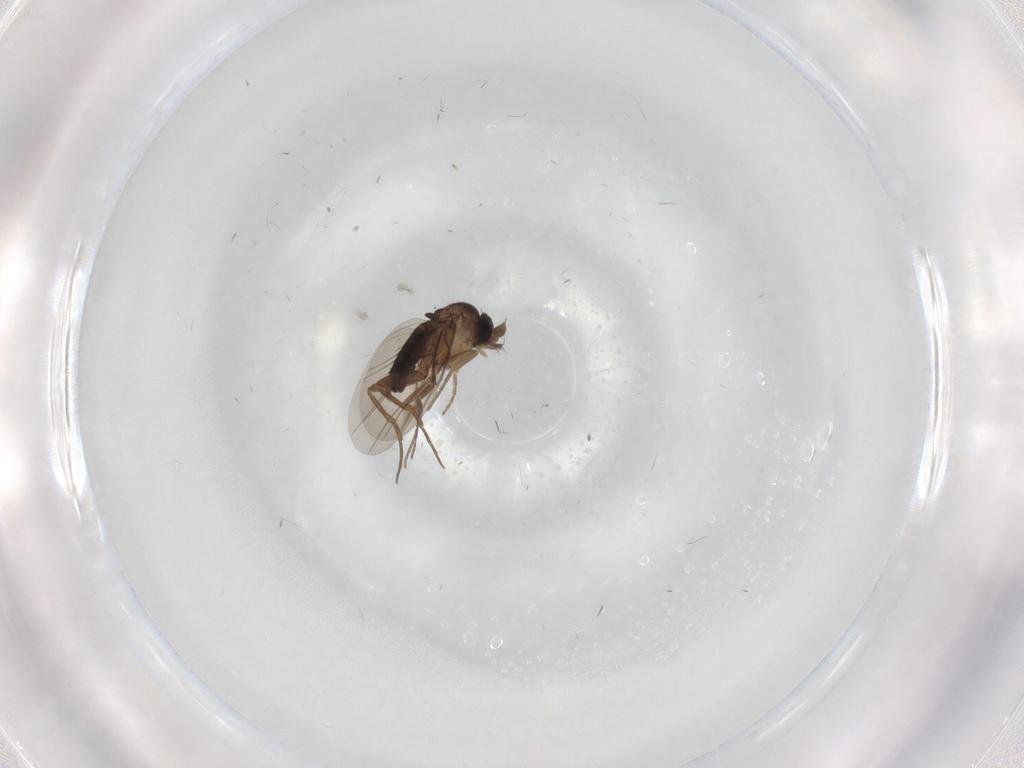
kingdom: Animalia
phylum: Arthropoda
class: Insecta
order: Diptera
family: Phoridae
